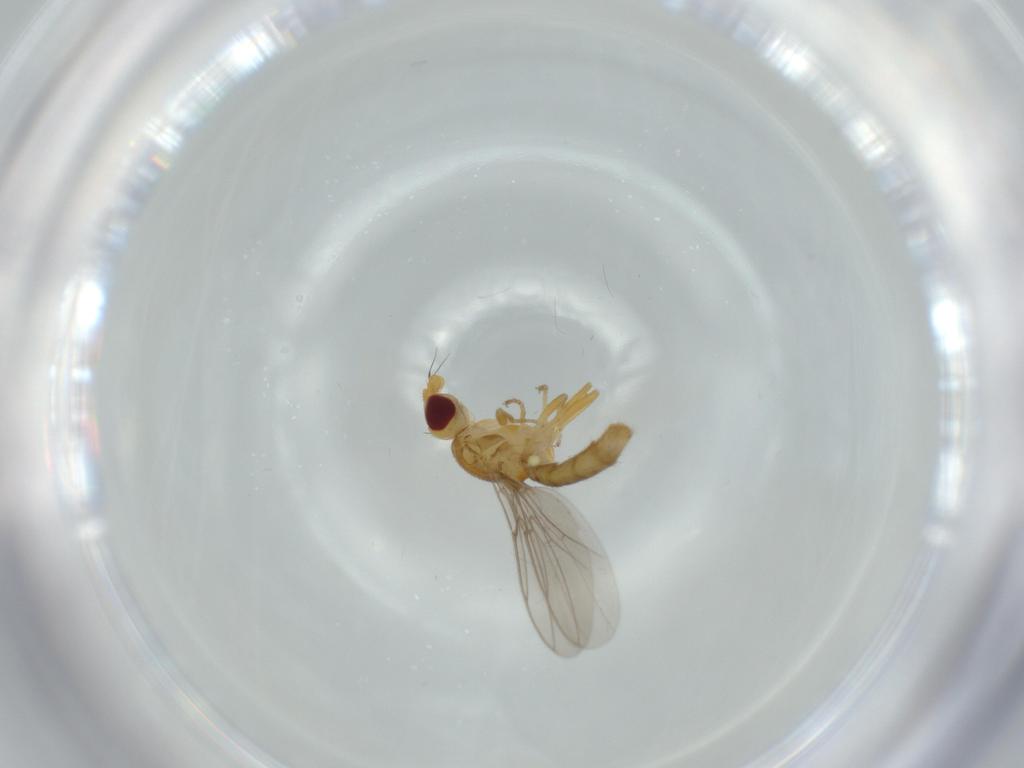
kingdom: Animalia
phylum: Arthropoda
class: Insecta
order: Diptera
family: Chloropidae
